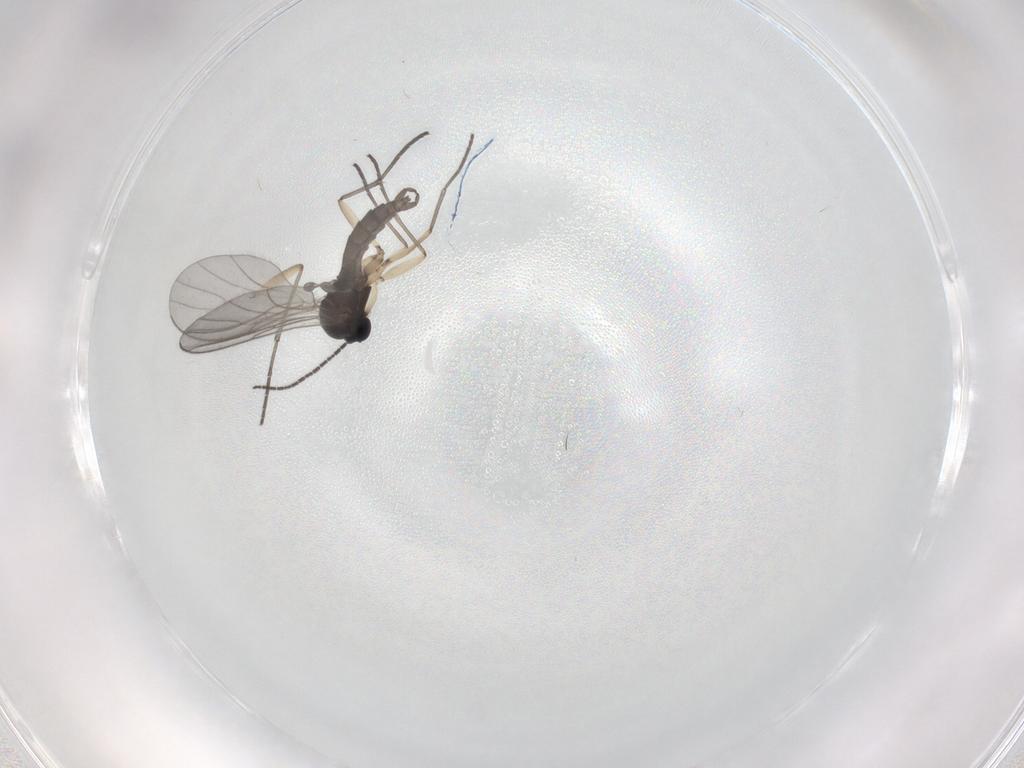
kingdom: Animalia
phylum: Arthropoda
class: Insecta
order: Diptera
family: Sciaridae
